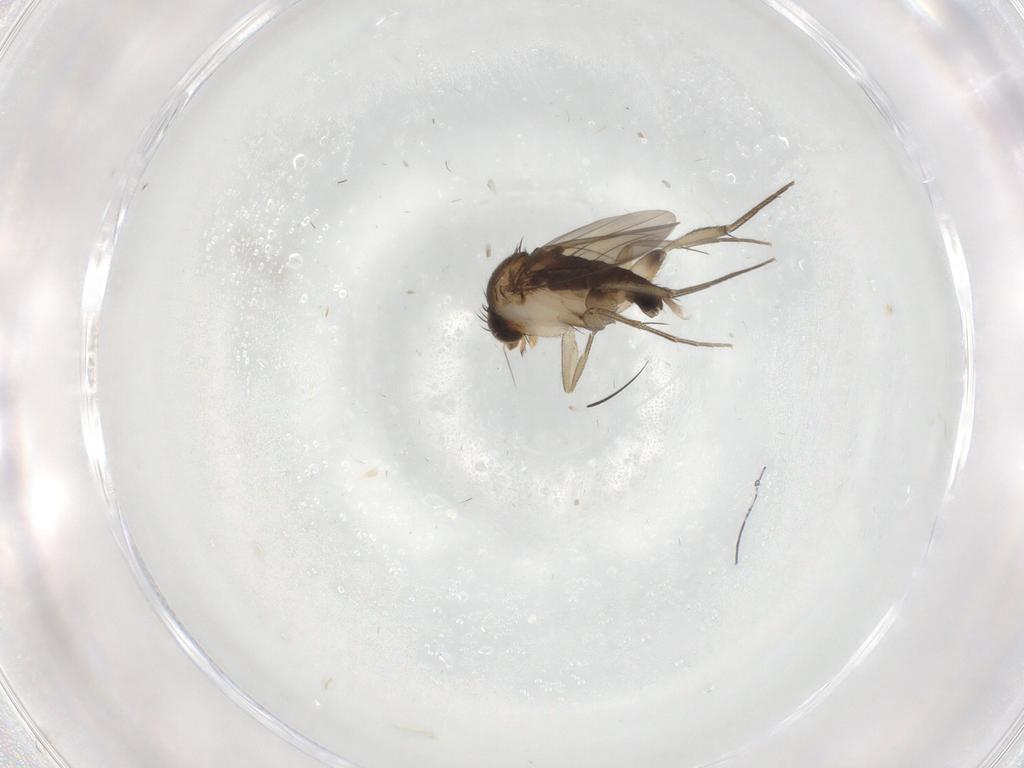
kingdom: Animalia
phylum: Arthropoda
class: Insecta
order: Diptera
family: Phoridae
